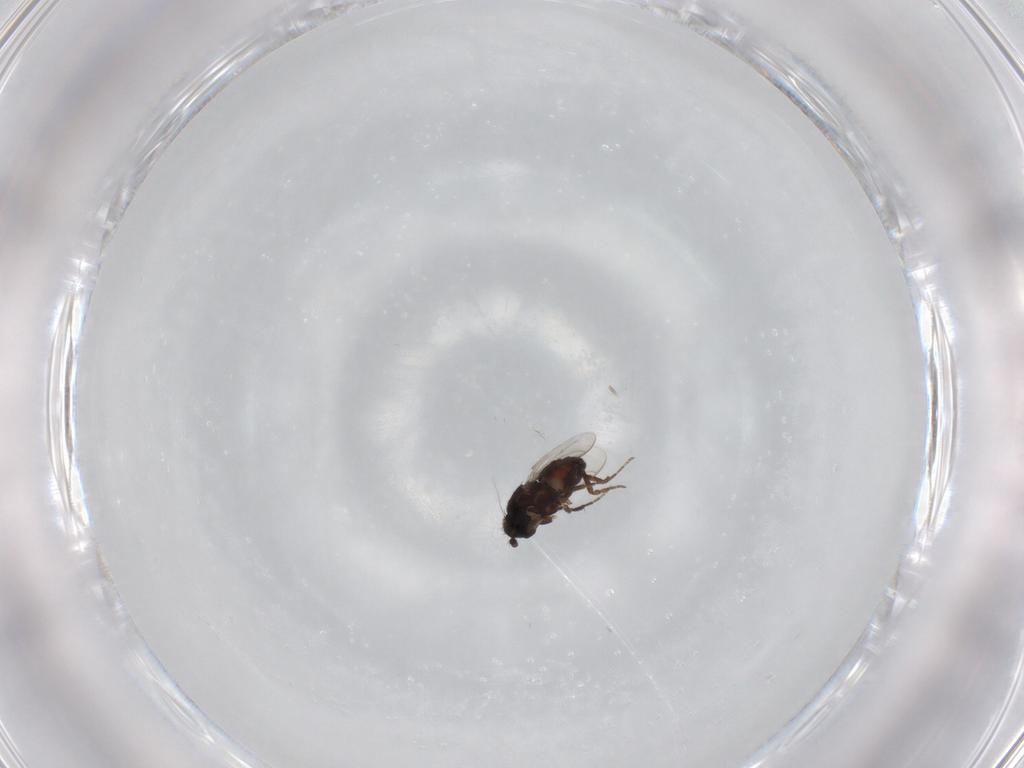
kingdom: Animalia
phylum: Arthropoda
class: Insecta
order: Diptera
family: Sphaeroceridae
